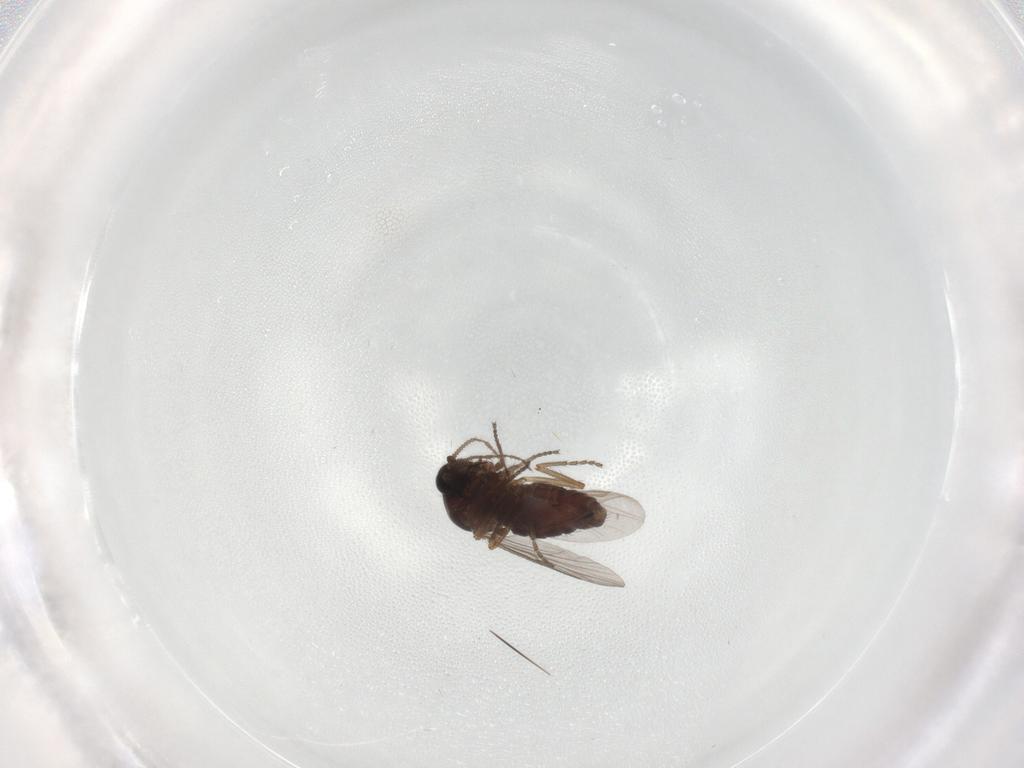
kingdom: Animalia
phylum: Arthropoda
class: Insecta
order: Diptera
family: Ceratopogonidae
